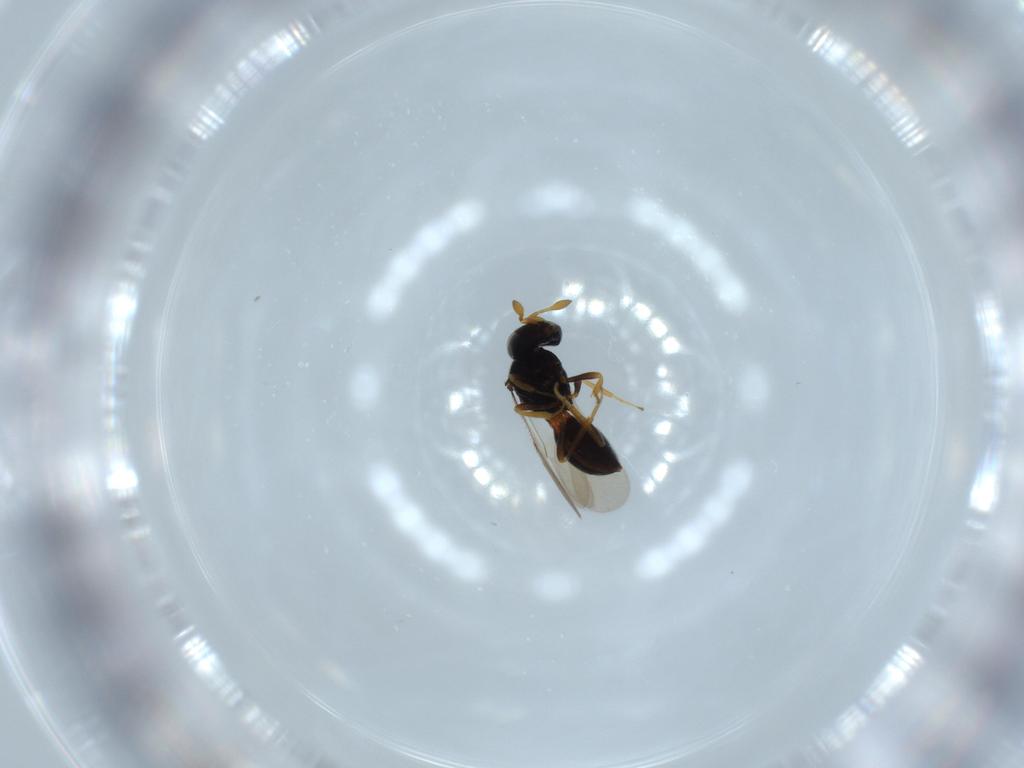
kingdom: Animalia
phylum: Arthropoda
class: Insecta
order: Hymenoptera
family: Scelionidae
